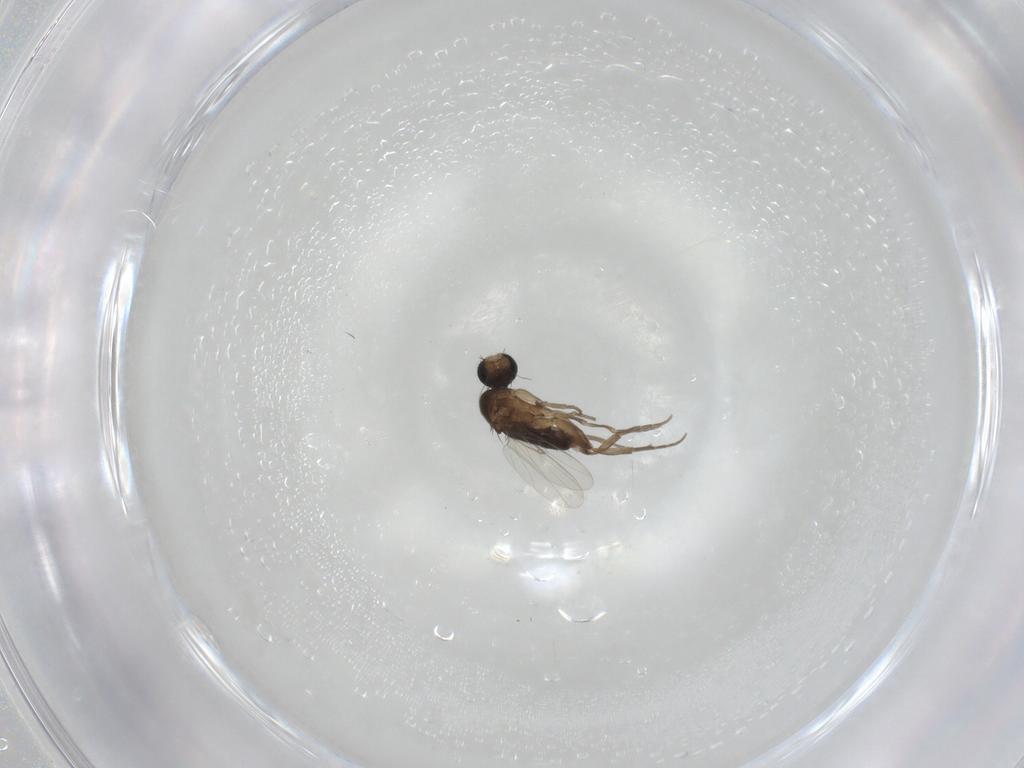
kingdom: Animalia
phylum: Arthropoda
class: Insecta
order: Diptera
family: Phoridae
